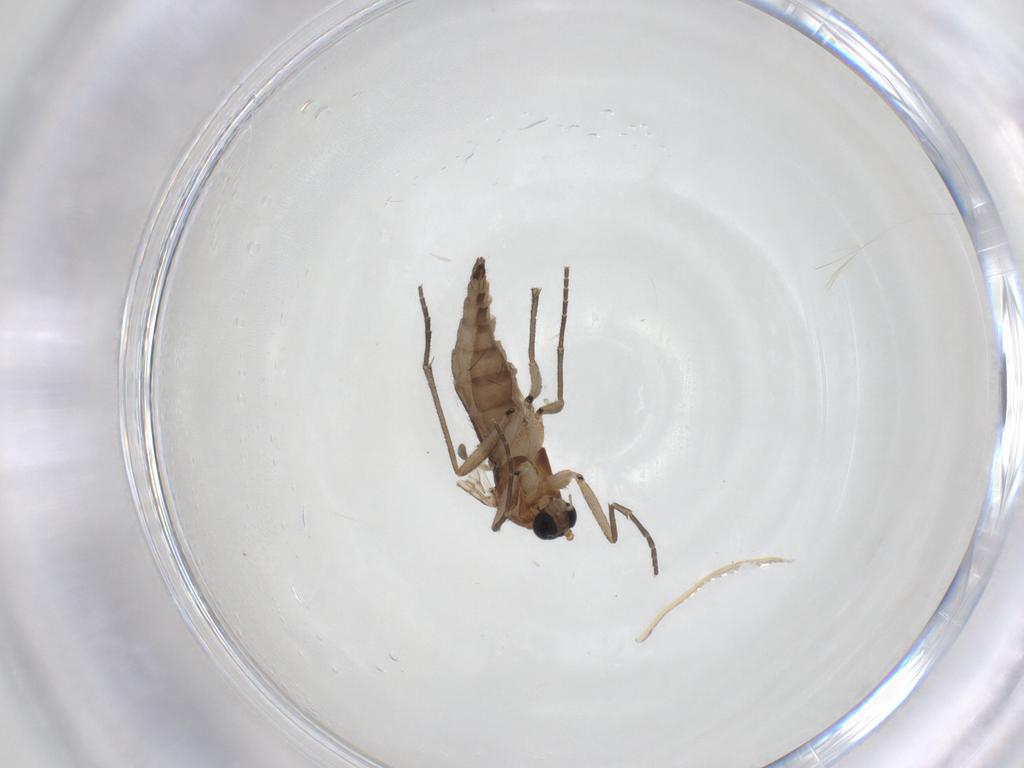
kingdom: Animalia
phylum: Arthropoda
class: Insecta
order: Diptera
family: Sciaridae
